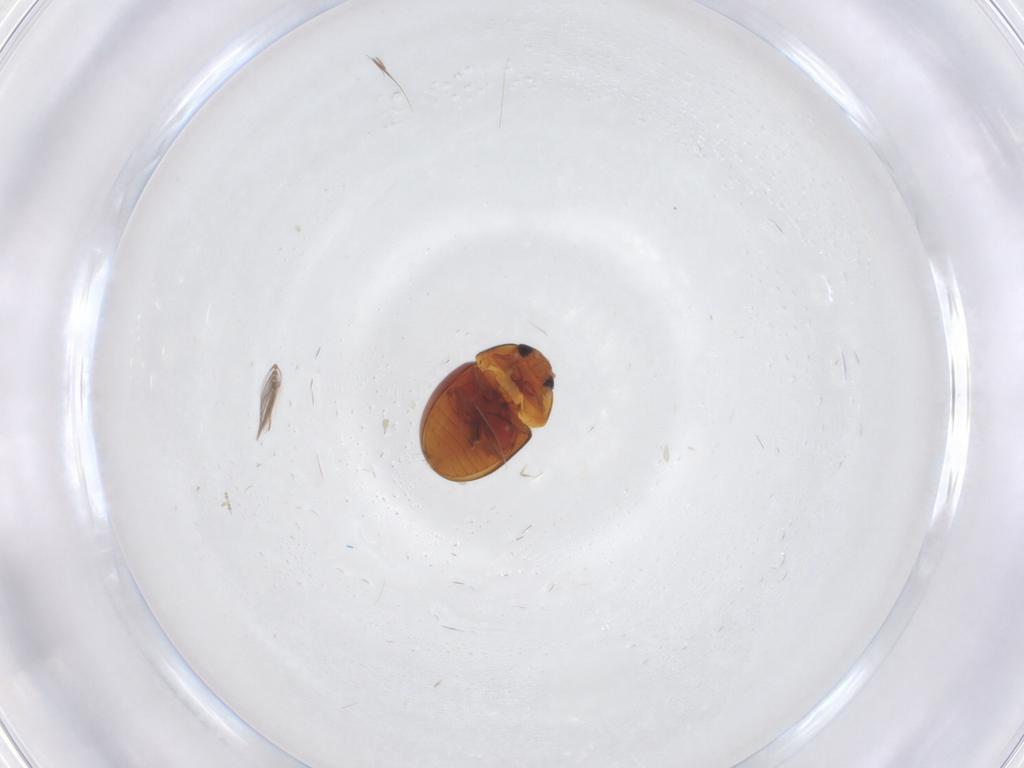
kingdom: Animalia
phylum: Arthropoda
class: Insecta
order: Coleoptera
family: Phalacridae
